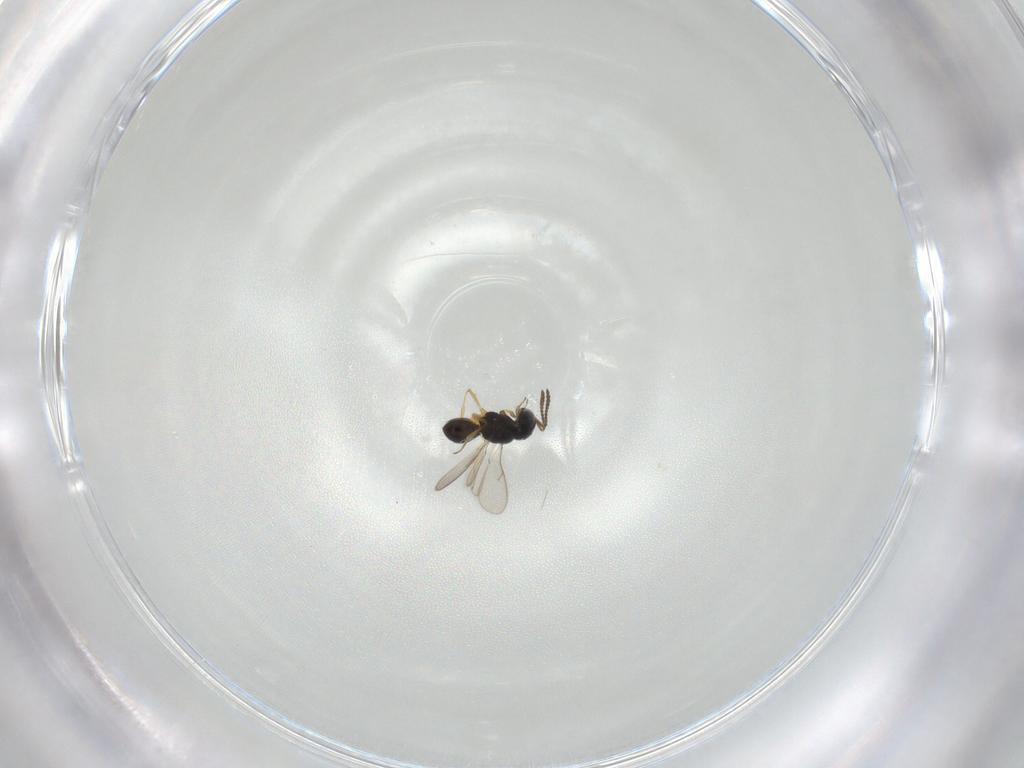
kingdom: Animalia
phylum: Arthropoda
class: Insecta
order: Hymenoptera
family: Scelionidae
